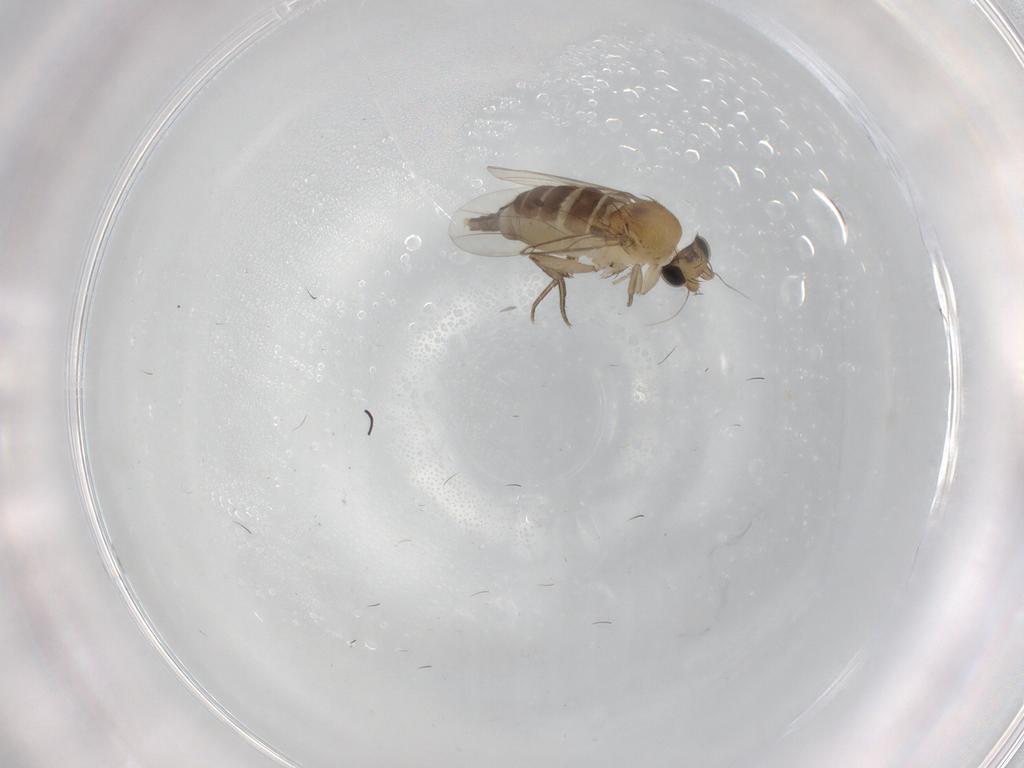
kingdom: Animalia
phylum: Arthropoda
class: Insecta
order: Diptera
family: Phoridae
